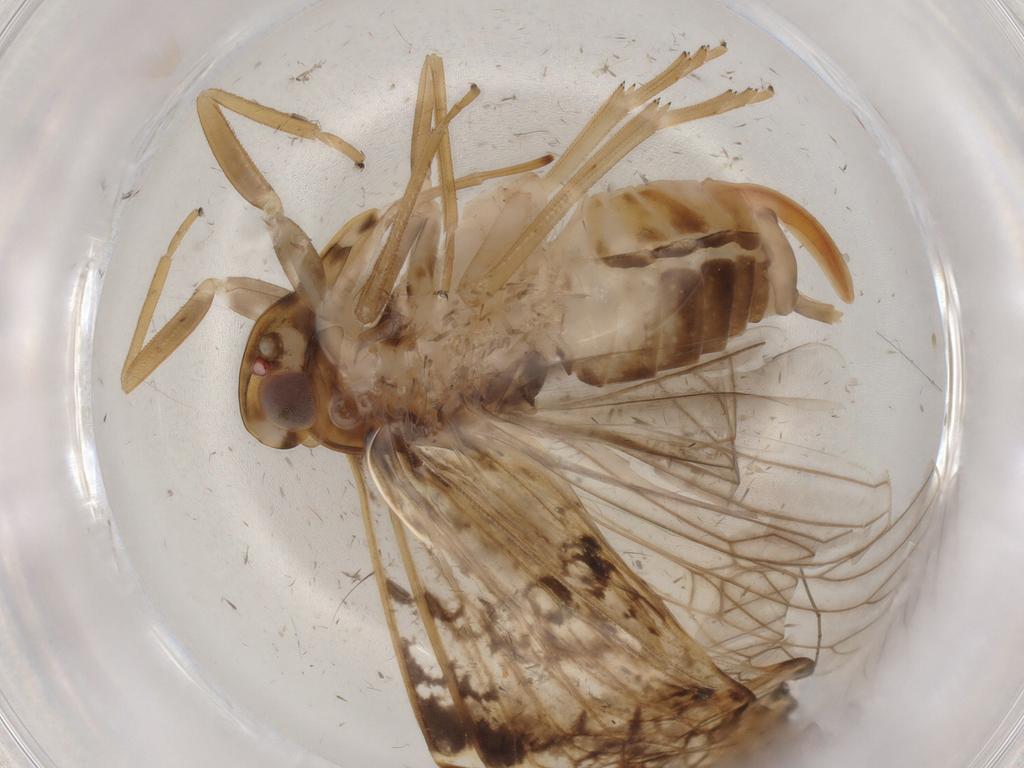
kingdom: Animalia
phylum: Arthropoda
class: Insecta
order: Hemiptera
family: Cixiidae
